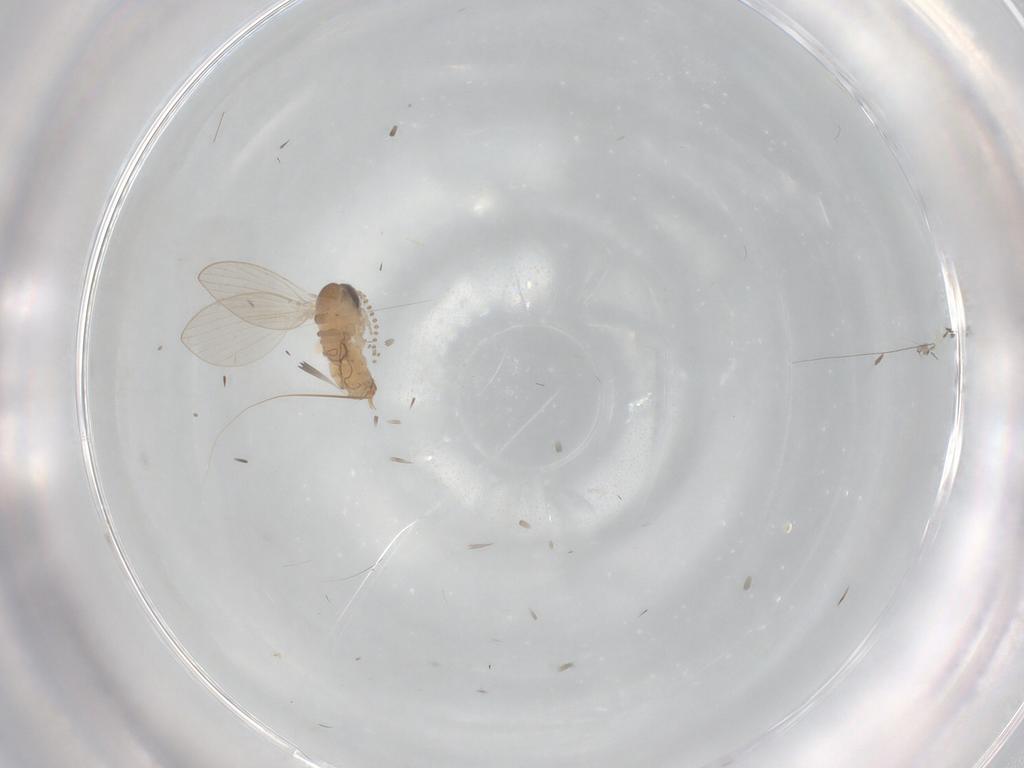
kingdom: Animalia
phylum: Arthropoda
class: Insecta
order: Diptera
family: Psychodidae
